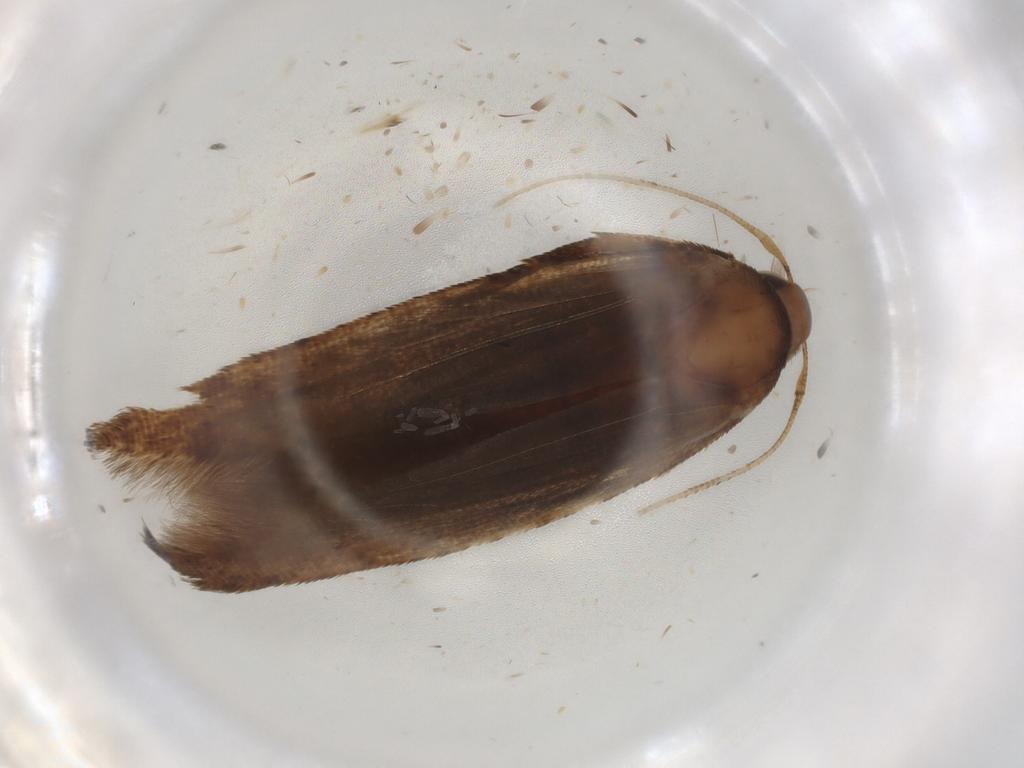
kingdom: Animalia
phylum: Arthropoda
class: Insecta
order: Lepidoptera
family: Cosmopterigidae
